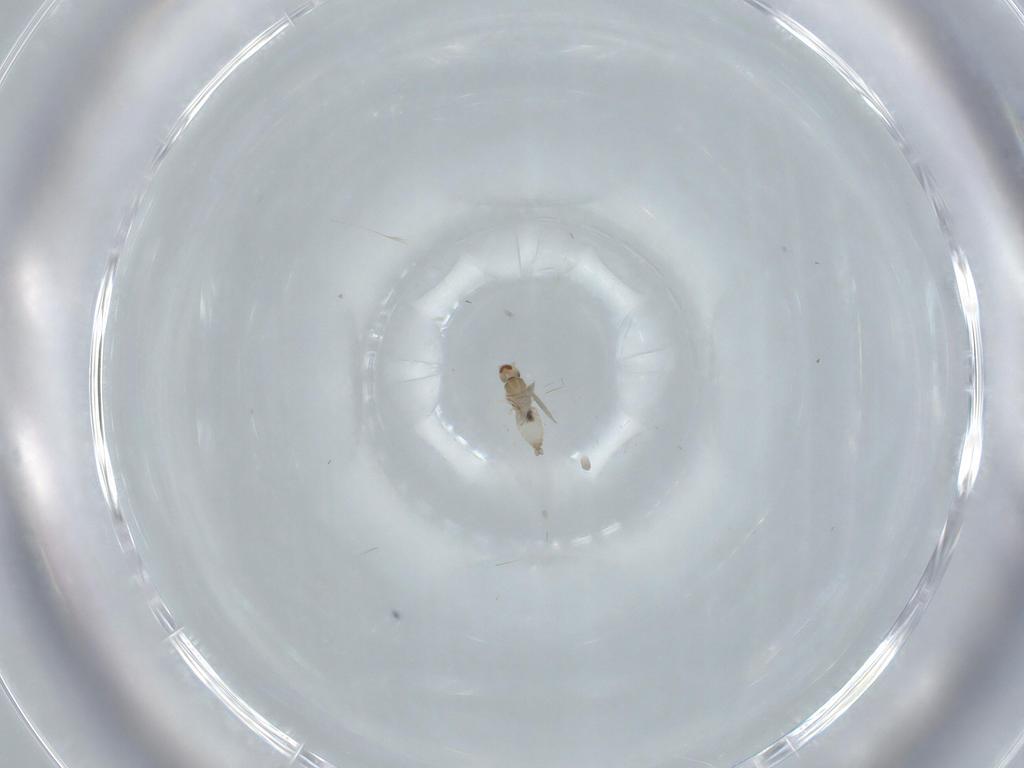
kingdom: Animalia
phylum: Arthropoda
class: Insecta
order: Diptera
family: Cecidomyiidae
